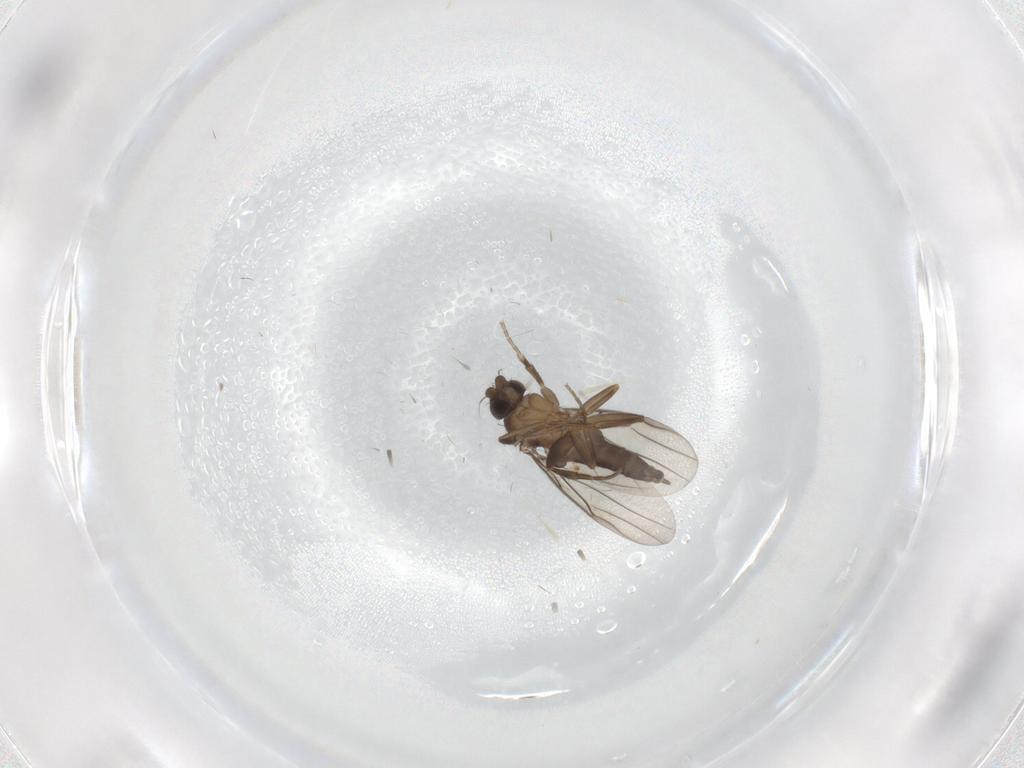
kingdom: Animalia
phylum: Arthropoda
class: Insecta
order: Diptera
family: Phoridae
